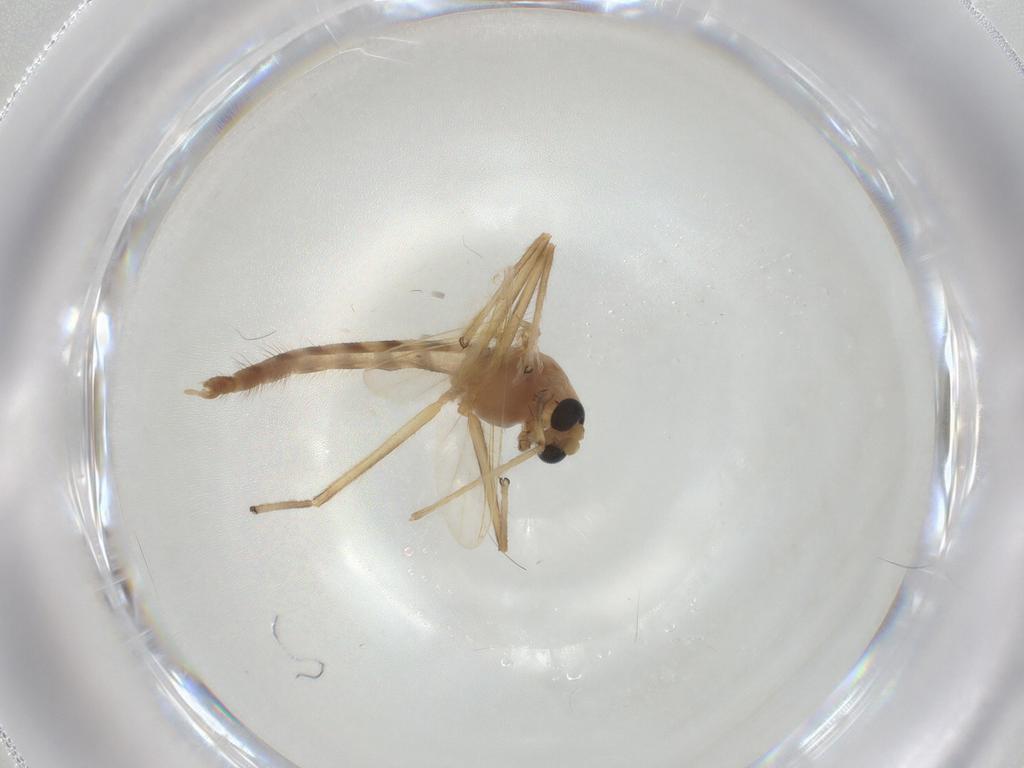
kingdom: Animalia
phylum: Arthropoda
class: Insecta
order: Diptera
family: Chironomidae
